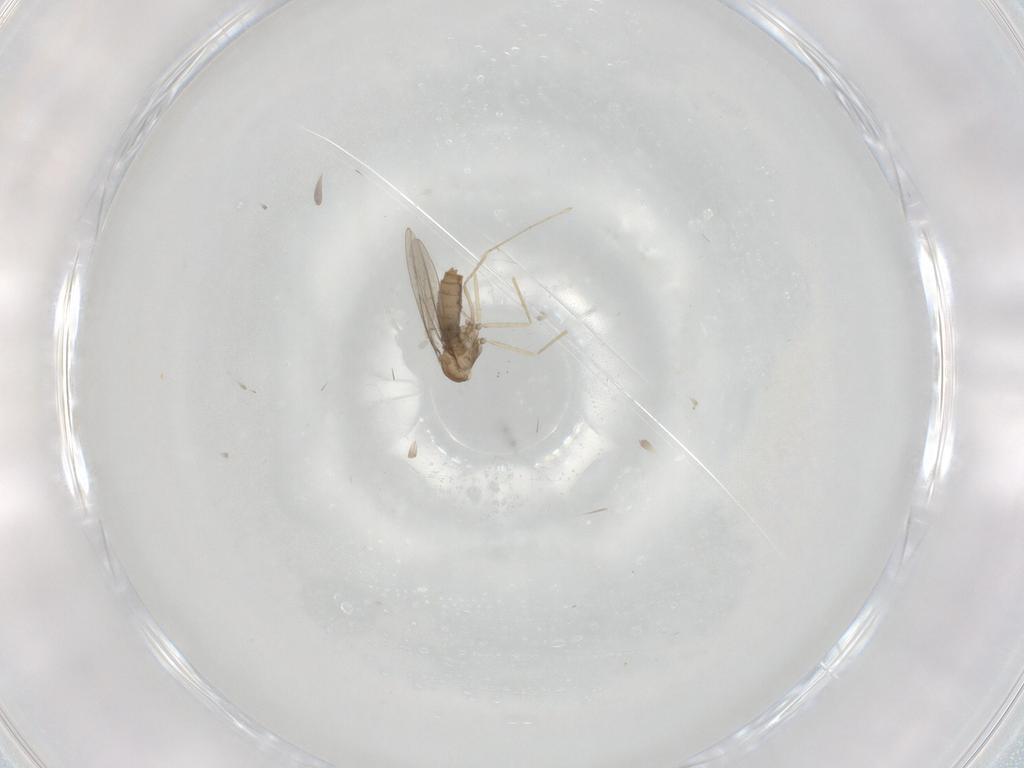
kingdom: Animalia
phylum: Arthropoda
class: Insecta
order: Diptera
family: Cecidomyiidae
